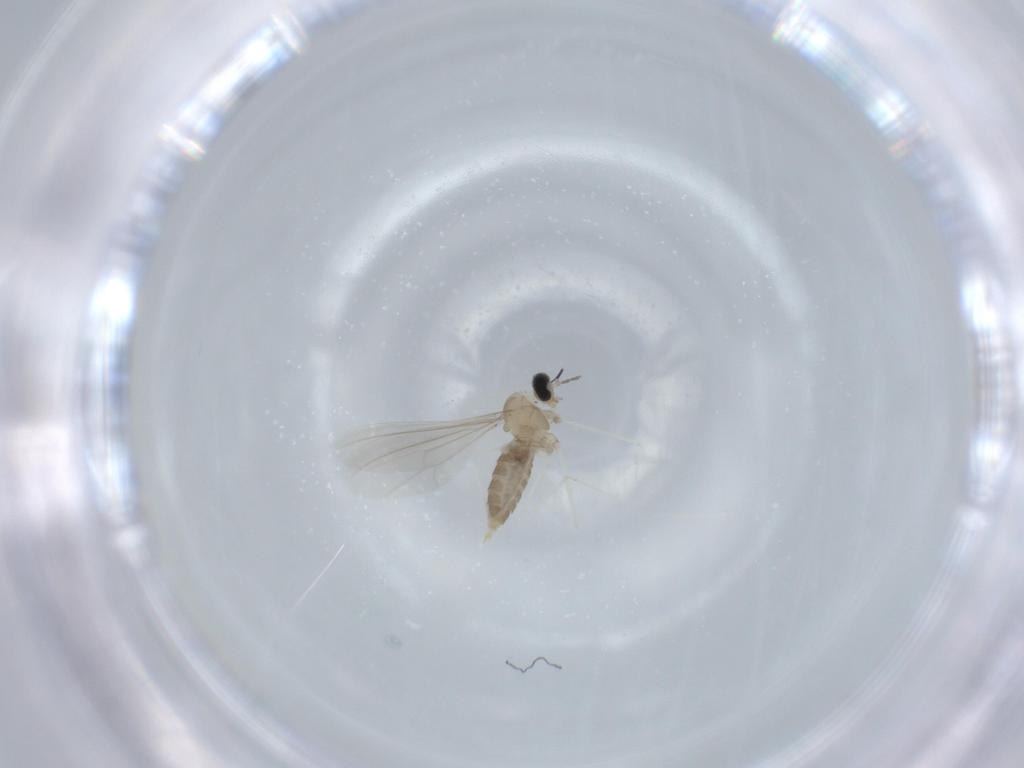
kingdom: Animalia
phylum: Arthropoda
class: Insecta
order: Diptera
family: Cecidomyiidae
